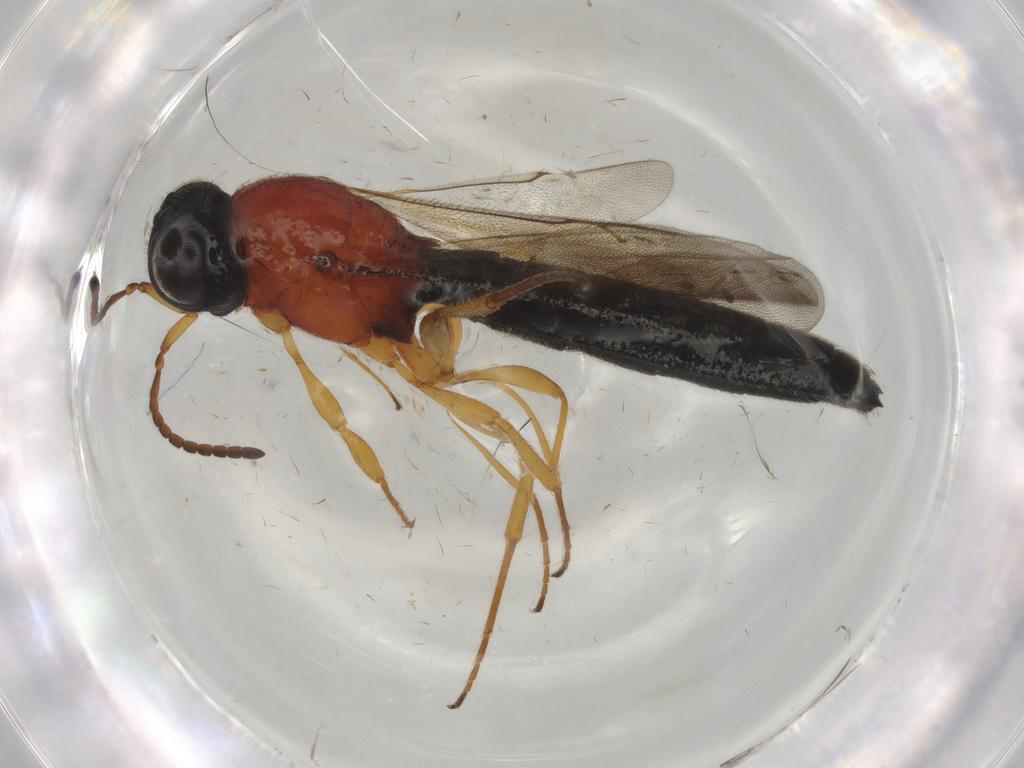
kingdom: Animalia
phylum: Arthropoda
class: Insecta
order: Hymenoptera
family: Scelionidae
